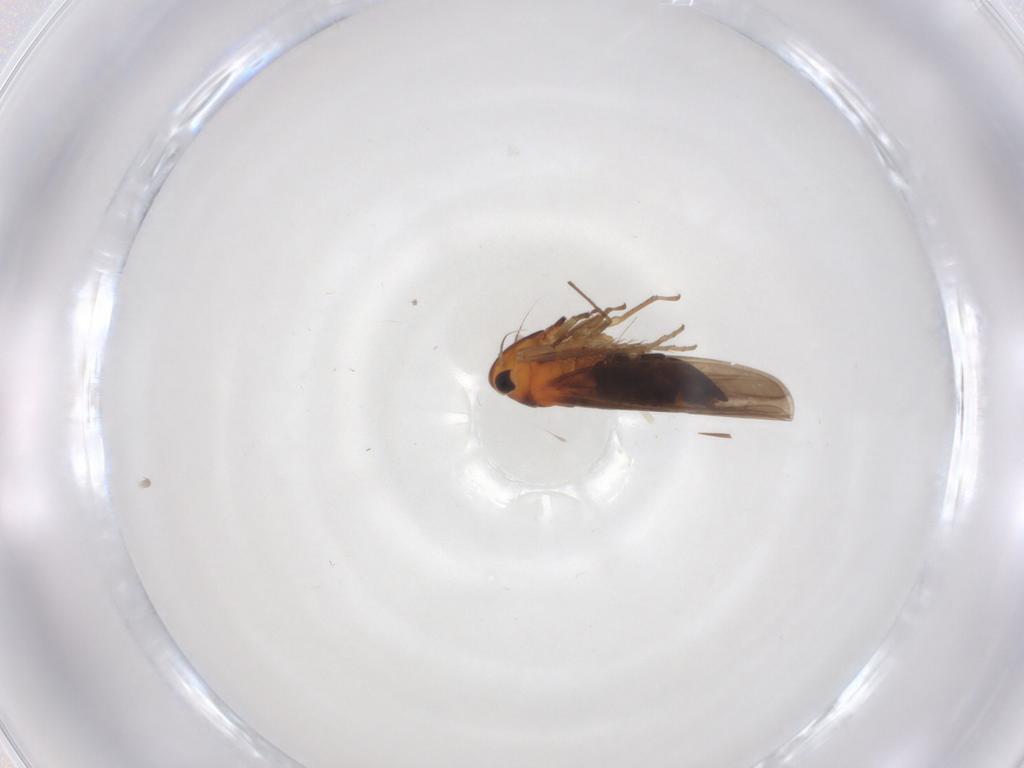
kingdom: Animalia
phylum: Arthropoda
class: Insecta
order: Hemiptera
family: Cicadellidae
